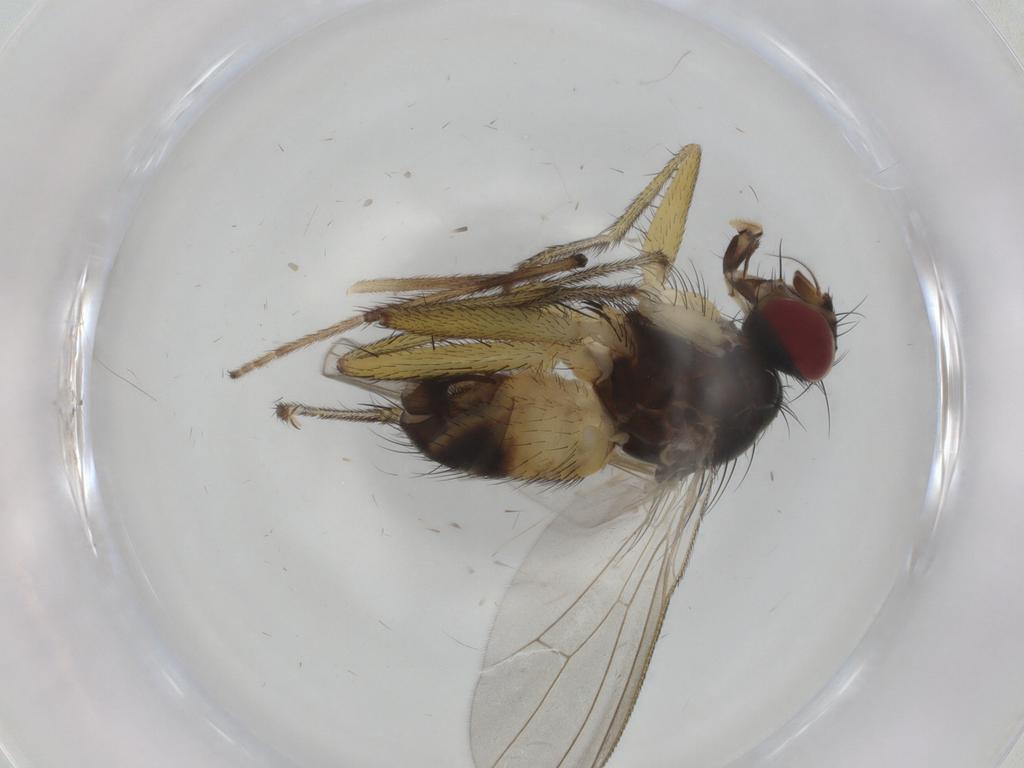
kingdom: Animalia
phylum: Arthropoda
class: Insecta
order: Diptera
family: Muscidae
